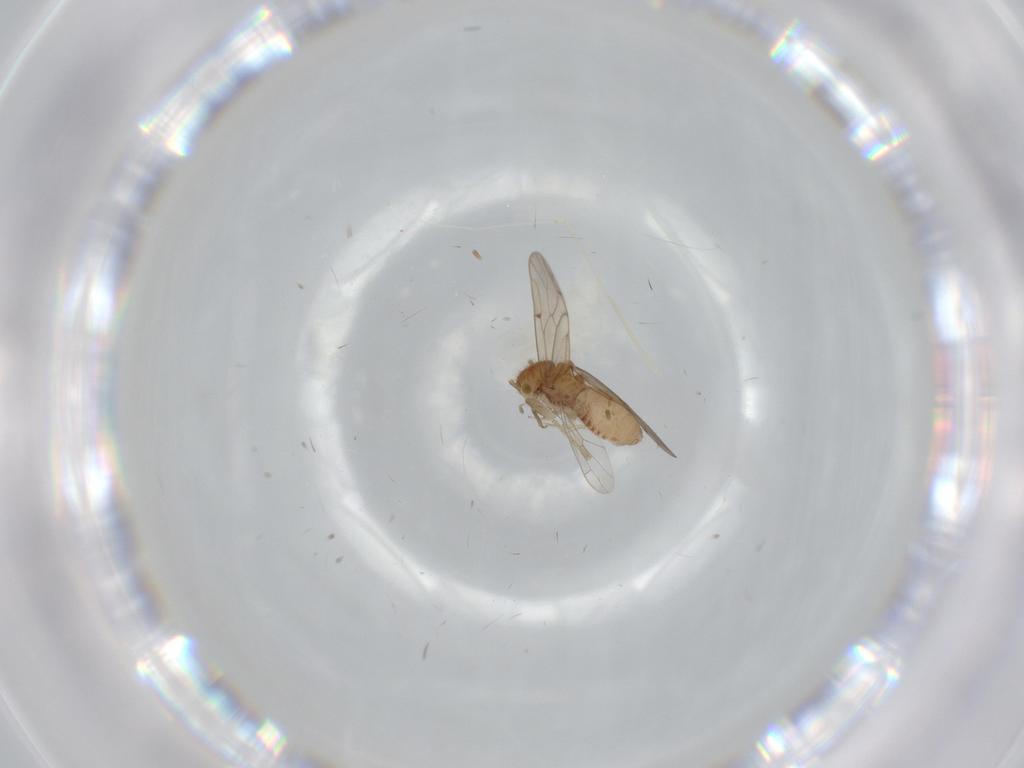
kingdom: Animalia
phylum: Arthropoda
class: Insecta
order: Psocodea
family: Ectopsocidae
